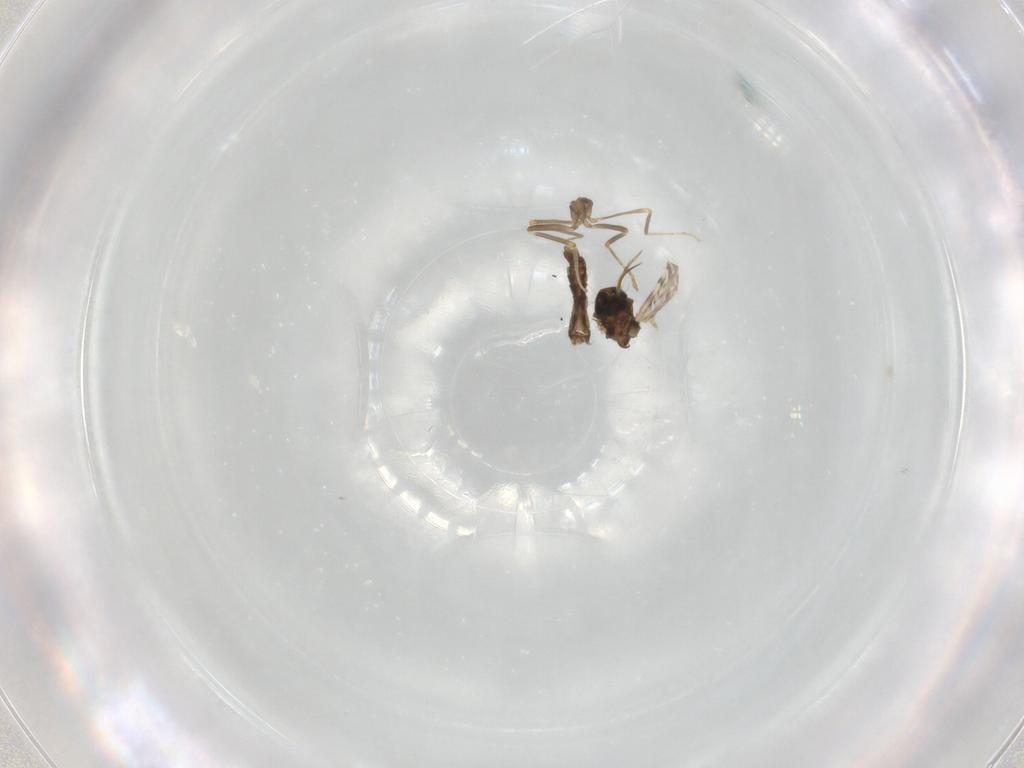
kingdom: Animalia
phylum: Arthropoda
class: Insecta
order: Diptera
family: Ceratopogonidae
